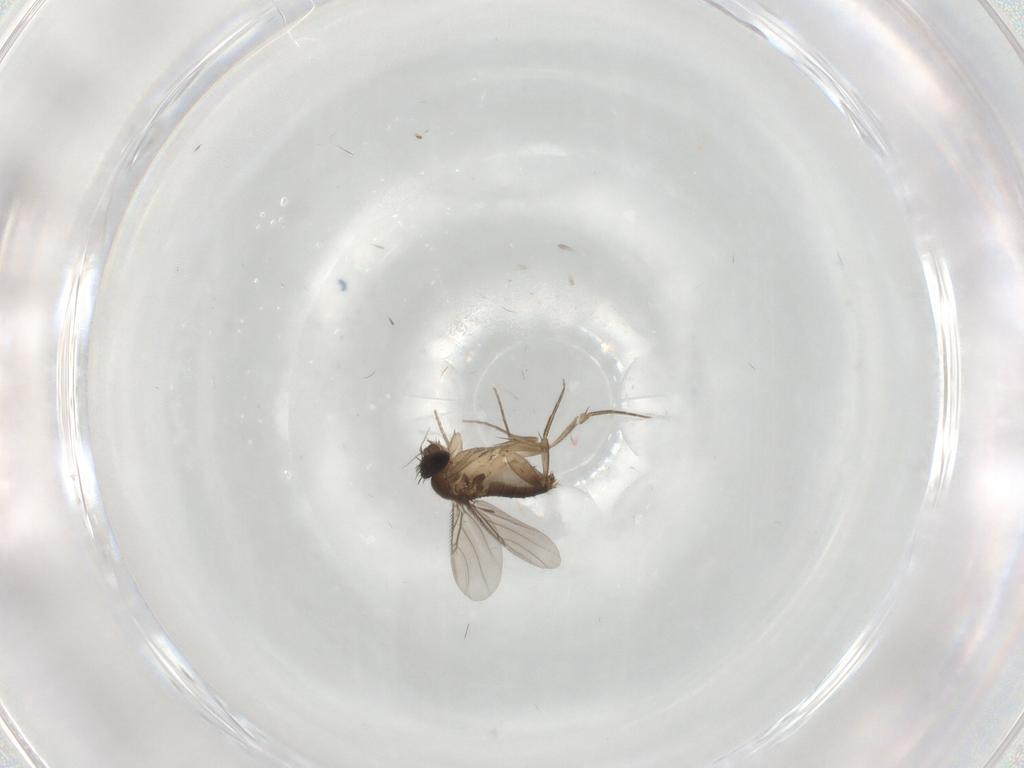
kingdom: Animalia
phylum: Arthropoda
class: Insecta
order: Diptera
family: Phoridae
